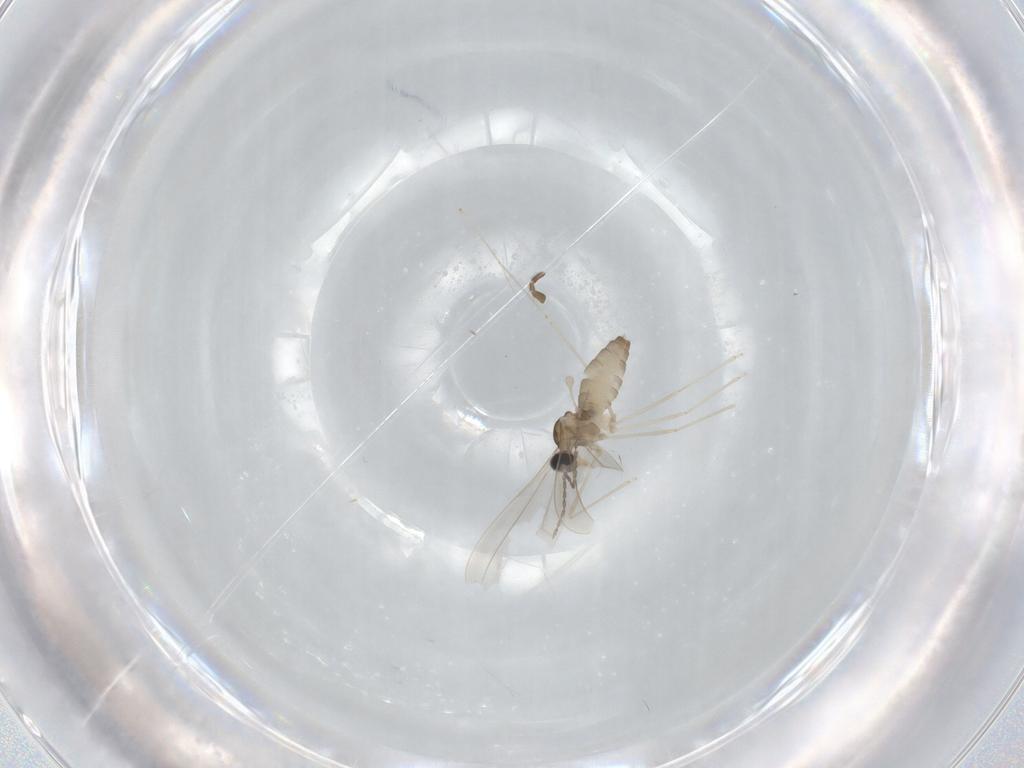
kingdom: Animalia
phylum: Arthropoda
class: Insecta
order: Diptera
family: Cecidomyiidae
